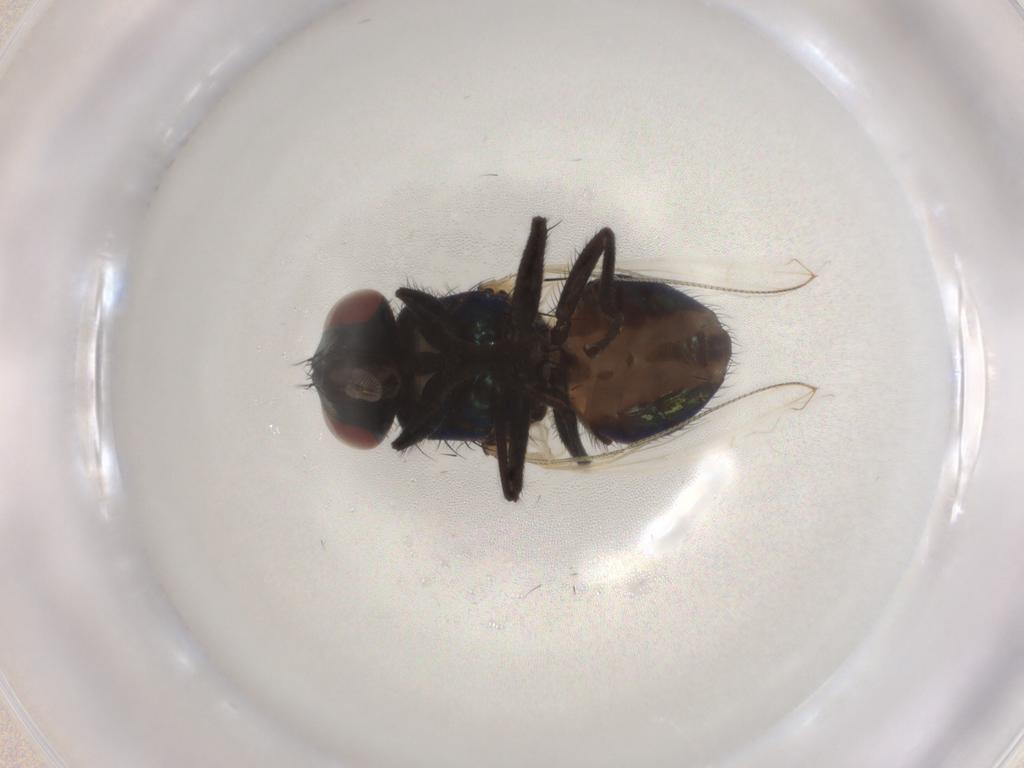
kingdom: Animalia
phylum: Arthropoda
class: Insecta
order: Diptera
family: Muscidae
